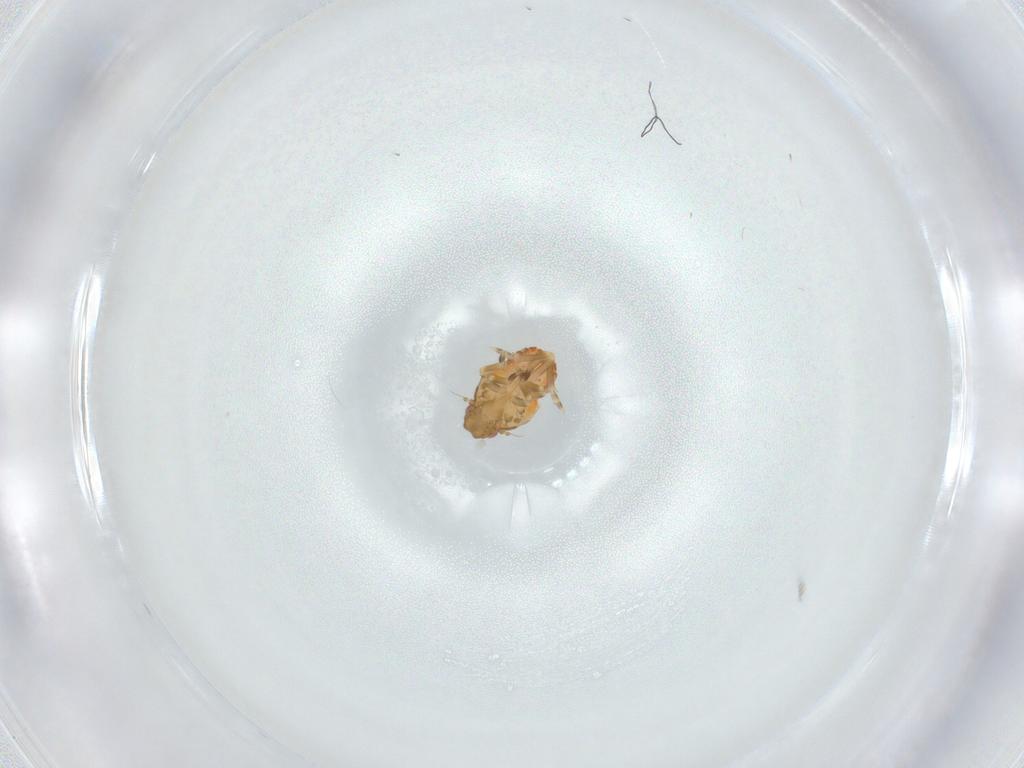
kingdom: Animalia
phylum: Arthropoda
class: Insecta
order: Hemiptera
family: Flatidae
